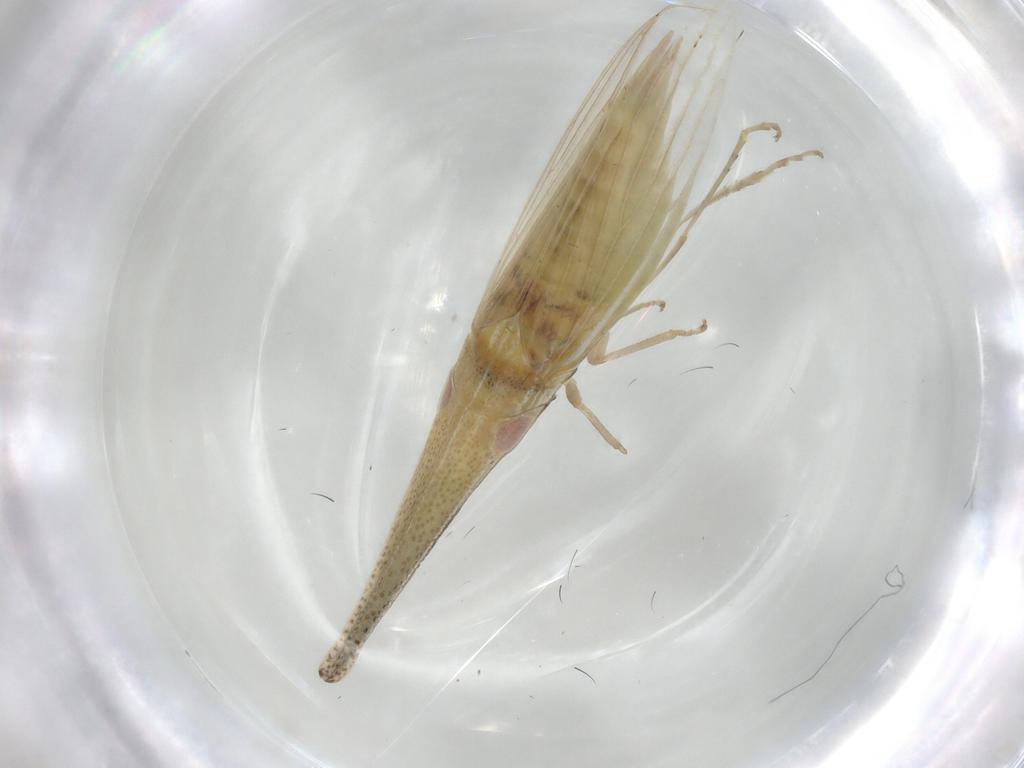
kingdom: Animalia
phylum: Arthropoda
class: Insecta
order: Hemiptera
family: Cicadellidae
